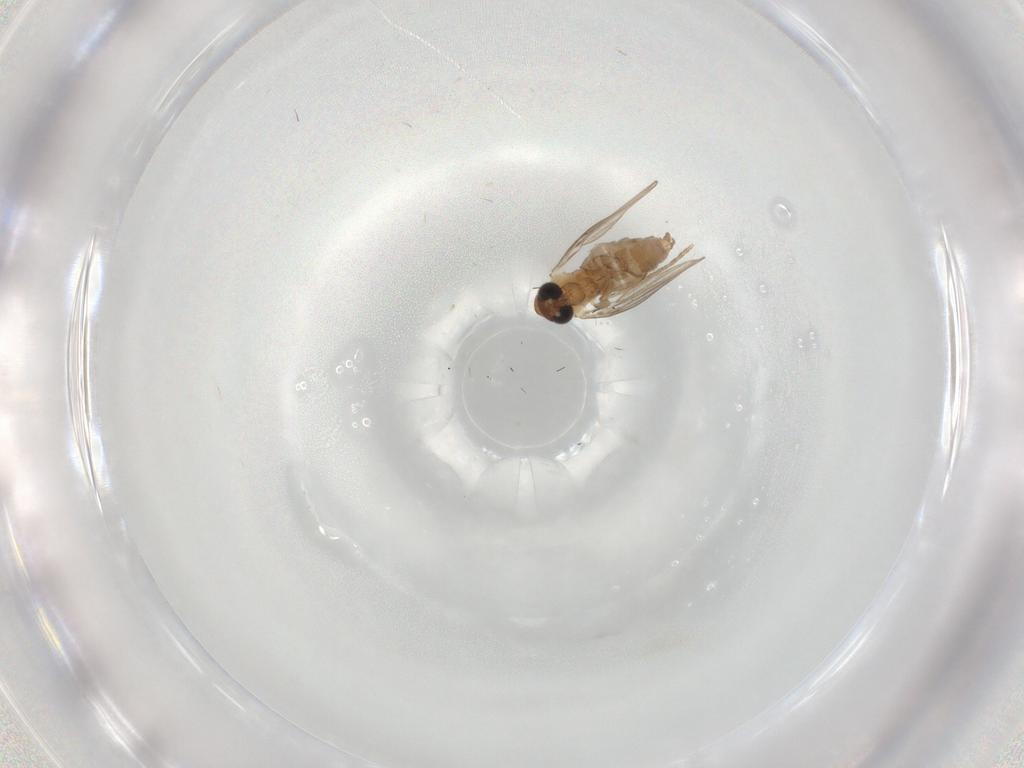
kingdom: Animalia
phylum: Arthropoda
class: Insecta
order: Diptera
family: Psychodidae
